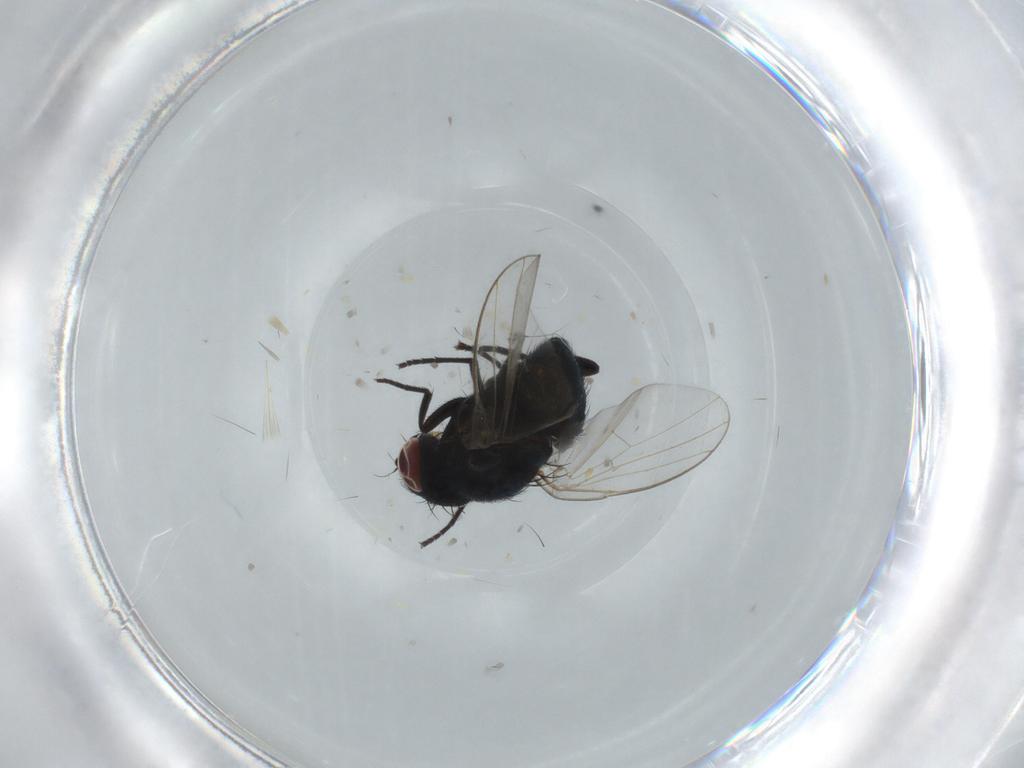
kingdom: Animalia
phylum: Arthropoda
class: Insecta
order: Diptera
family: Agromyzidae
